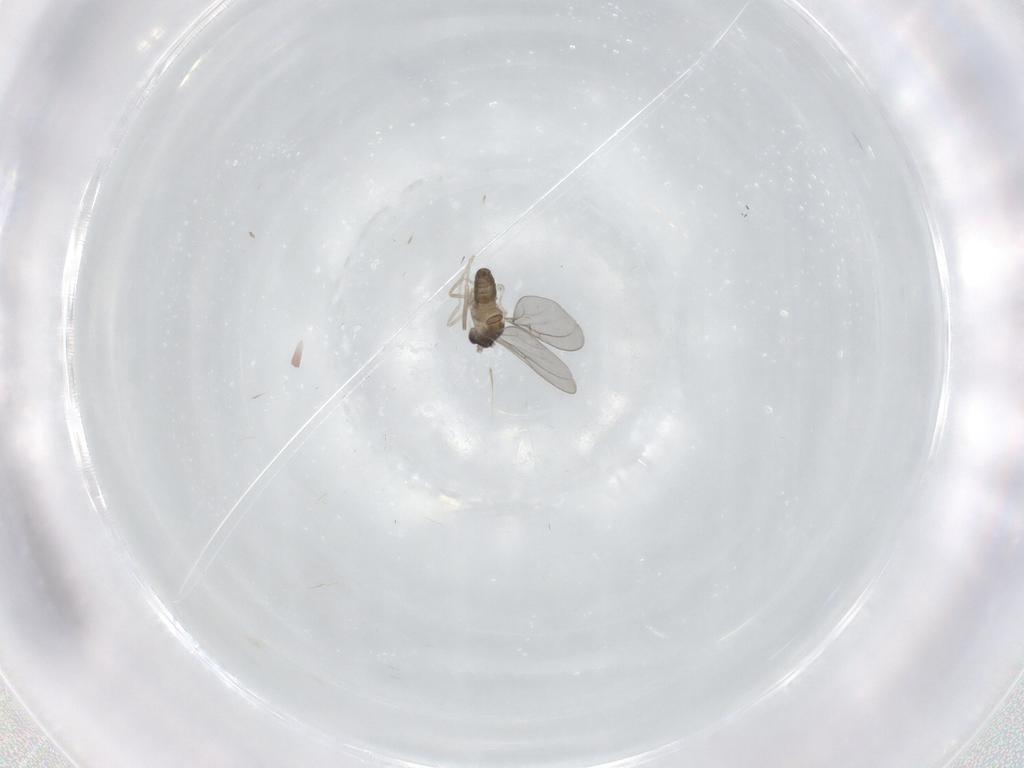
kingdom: Animalia
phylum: Arthropoda
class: Insecta
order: Diptera
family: Cecidomyiidae
